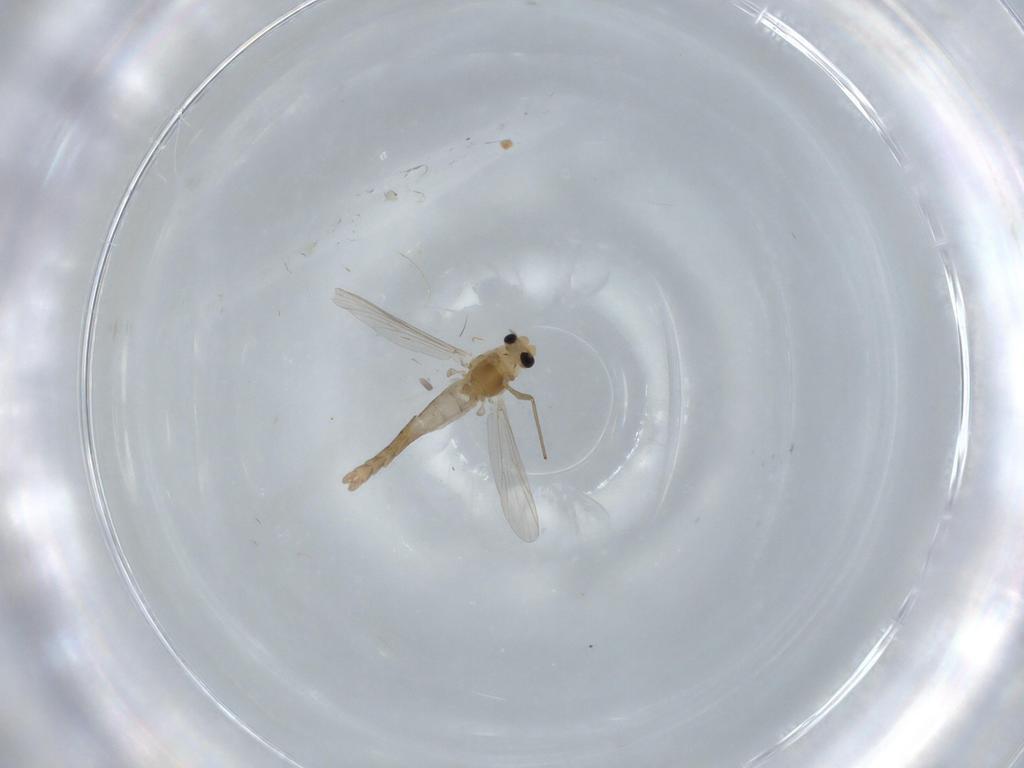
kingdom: Animalia
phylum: Arthropoda
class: Insecta
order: Diptera
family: Chironomidae
